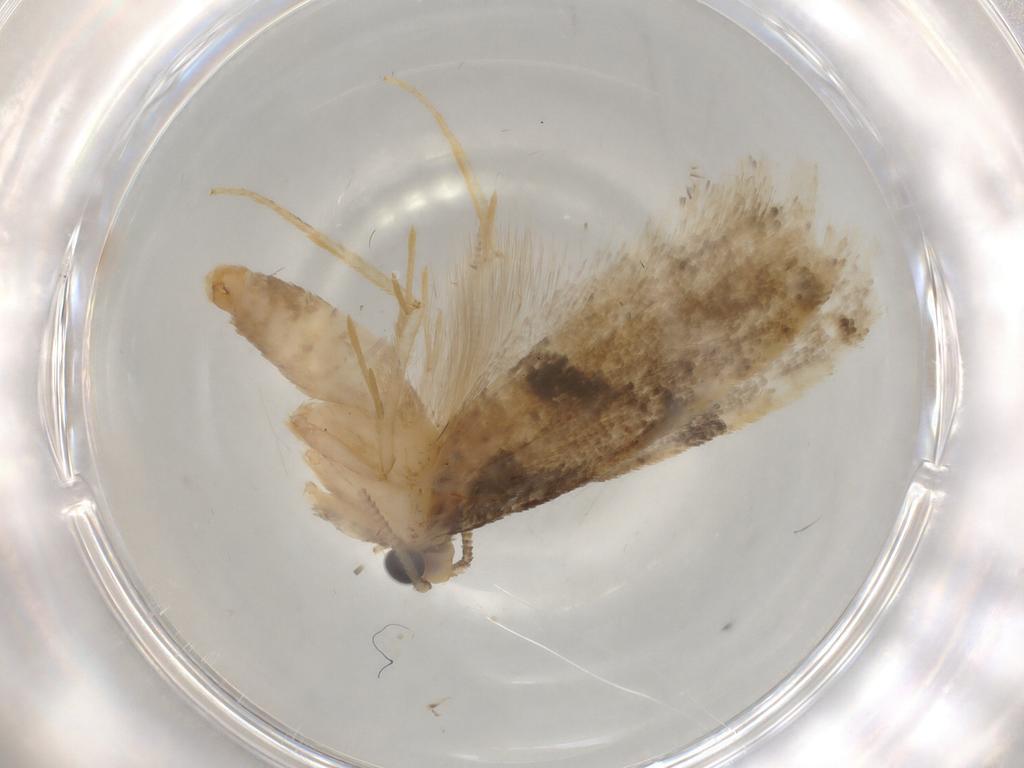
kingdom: Animalia
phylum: Arthropoda
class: Insecta
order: Lepidoptera
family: Tineidae
